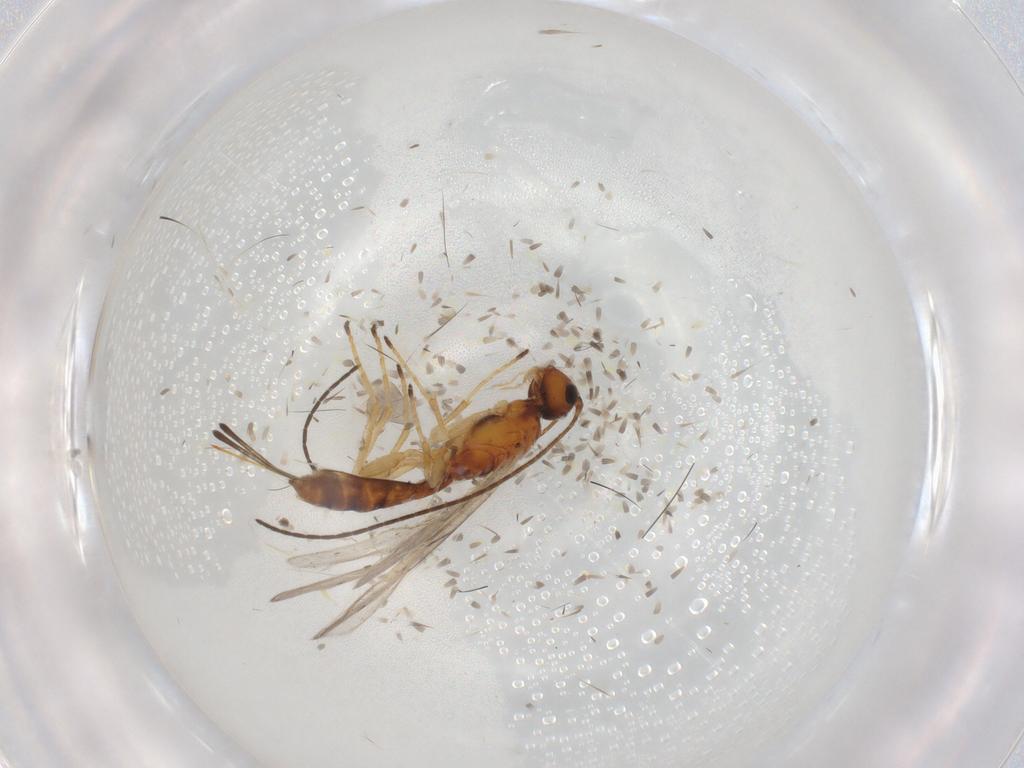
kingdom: Animalia
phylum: Arthropoda
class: Insecta
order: Hymenoptera
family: Braconidae
